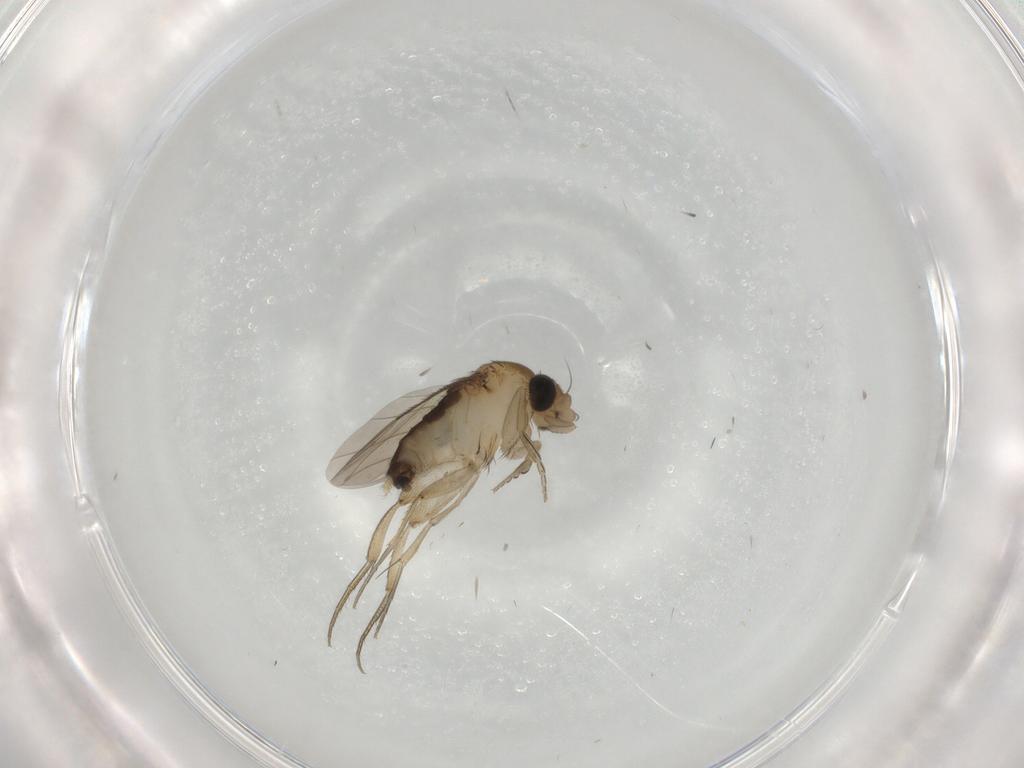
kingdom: Animalia
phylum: Arthropoda
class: Insecta
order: Diptera
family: Phoridae
